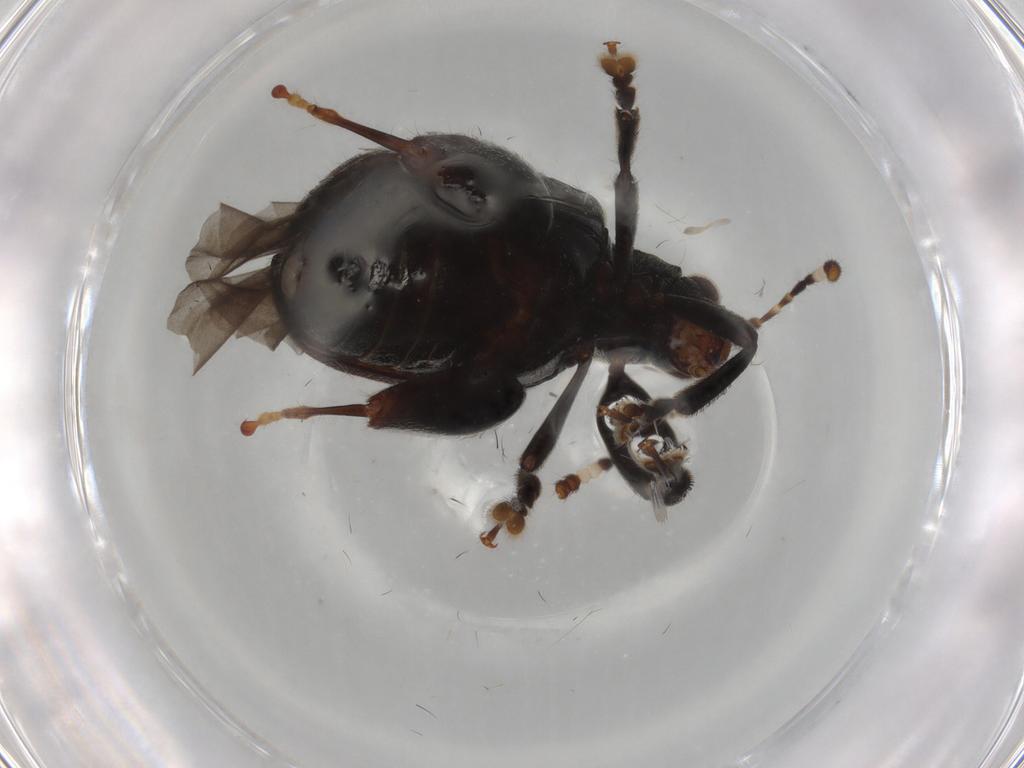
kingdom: Animalia
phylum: Arthropoda
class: Insecta
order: Coleoptera
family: Chrysomelidae
